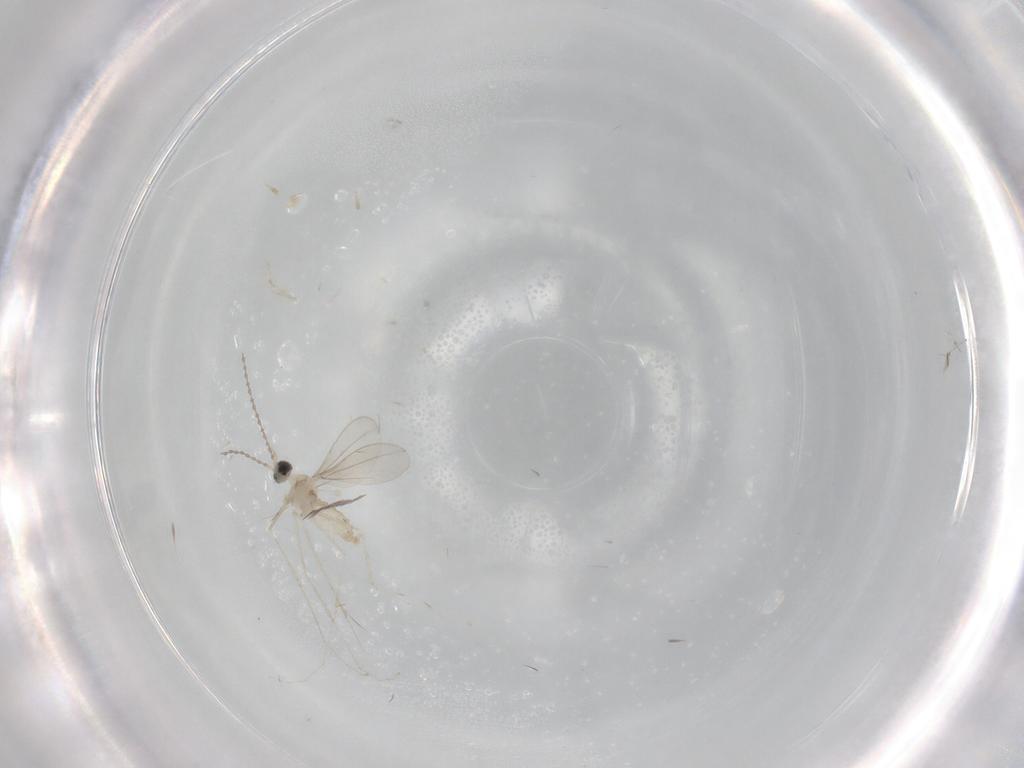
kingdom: Animalia
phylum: Arthropoda
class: Insecta
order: Diptera
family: Cecidomyiidae
